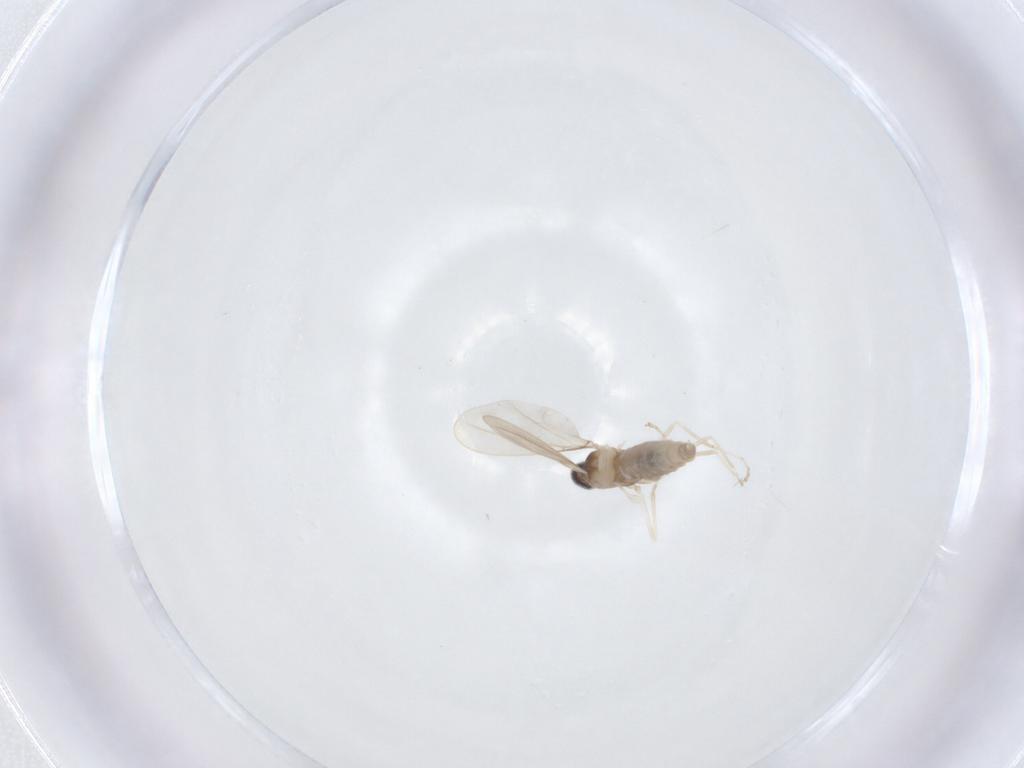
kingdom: Animalia
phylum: Arthropoda
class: Insecta
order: Diptera
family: Cecidomyiidae
